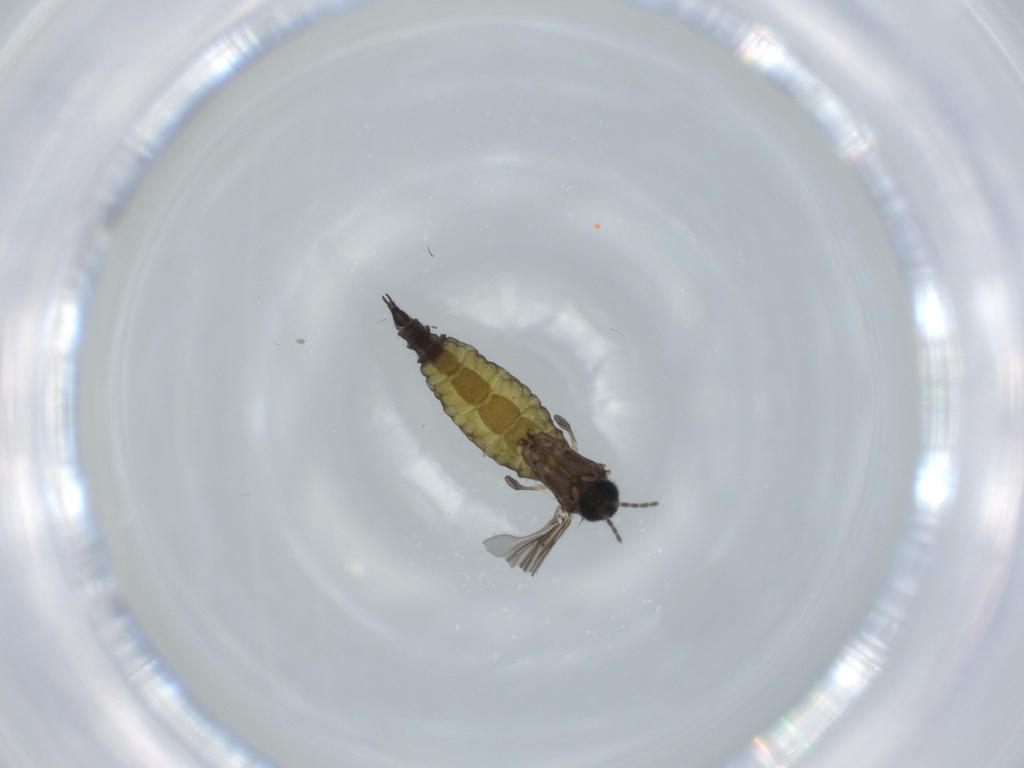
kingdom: Animalia
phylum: Arthropoda
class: Insecta
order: Diptera
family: Sciaridae
